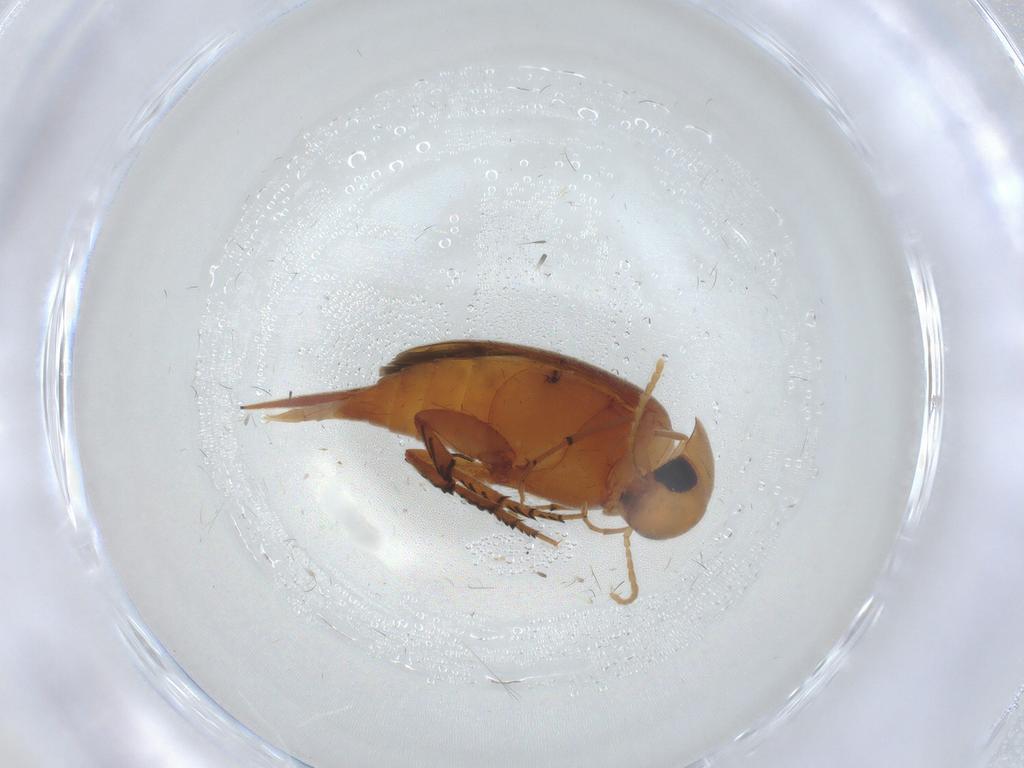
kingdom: Animalia
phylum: Arthropoda
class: Insecta
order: Coleoptera
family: Mordellidae
